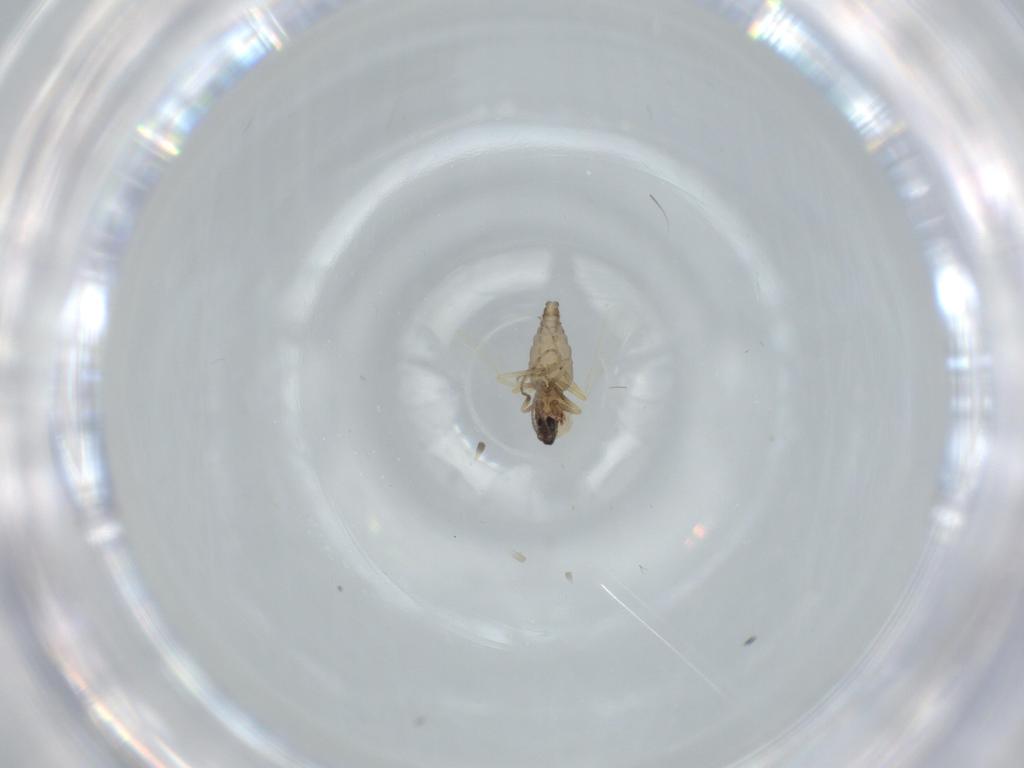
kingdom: Animalia
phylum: Arthropoda
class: Insecta
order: Diptera
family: Ceratopogonidae
